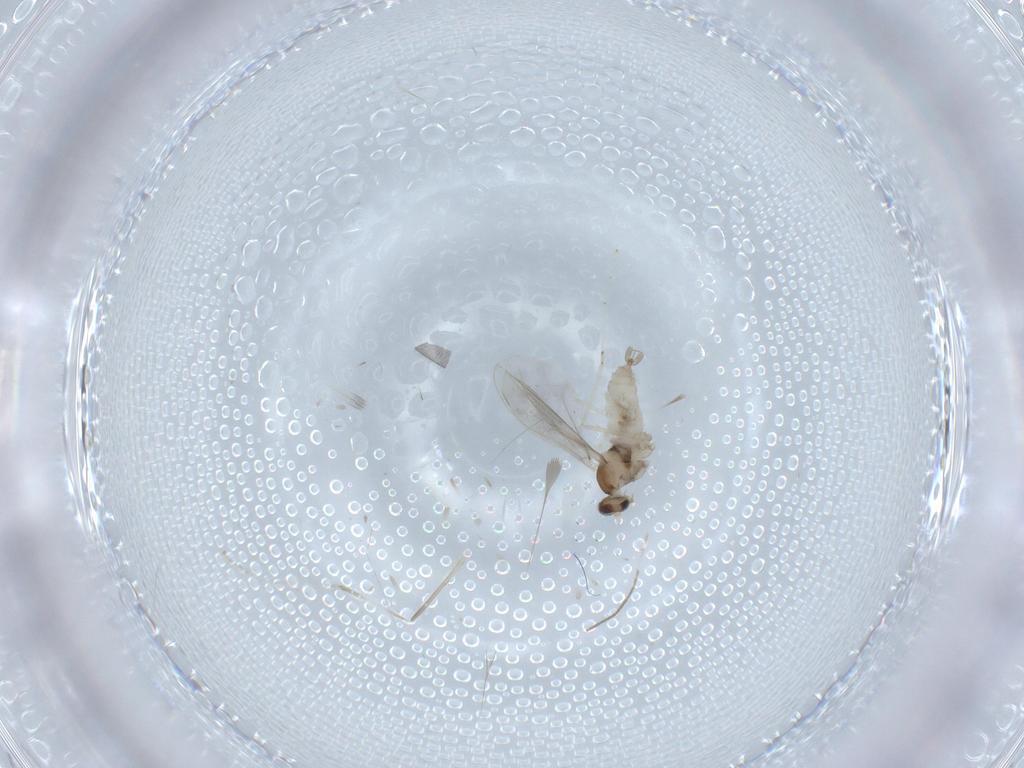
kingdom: Animalia
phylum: Arthropoda
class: Insecta
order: Diptera
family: Cecidomyiidae
